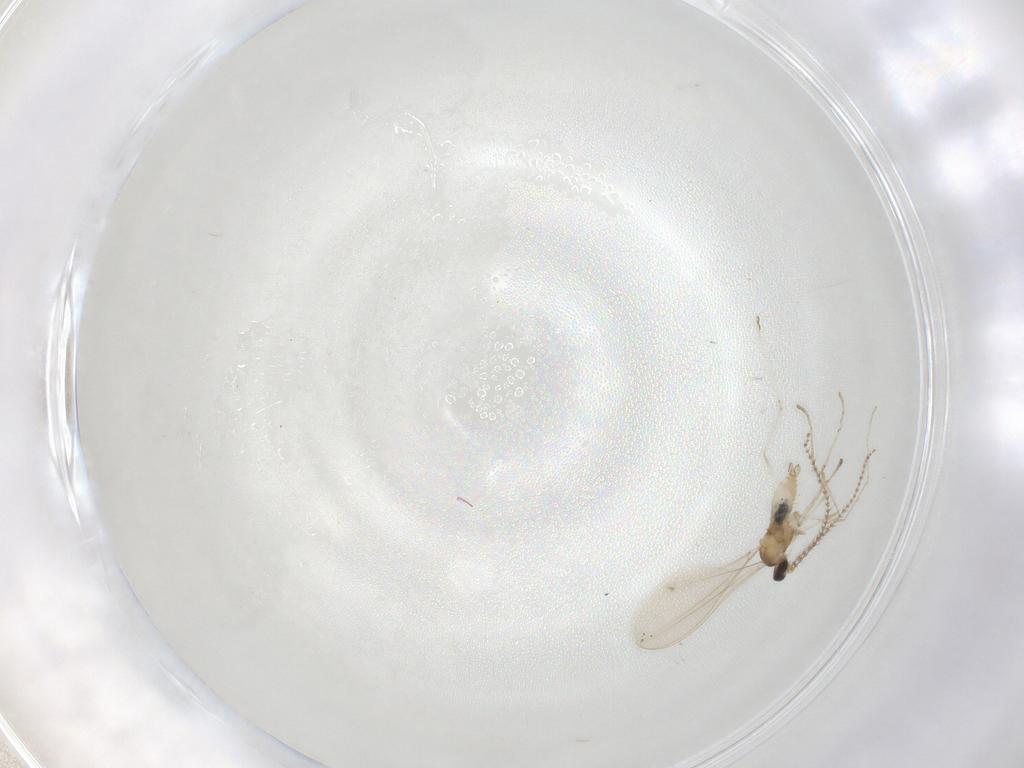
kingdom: Animalia
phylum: Arthropoda
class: Insecta
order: Diptera
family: Cecidomyiidae
